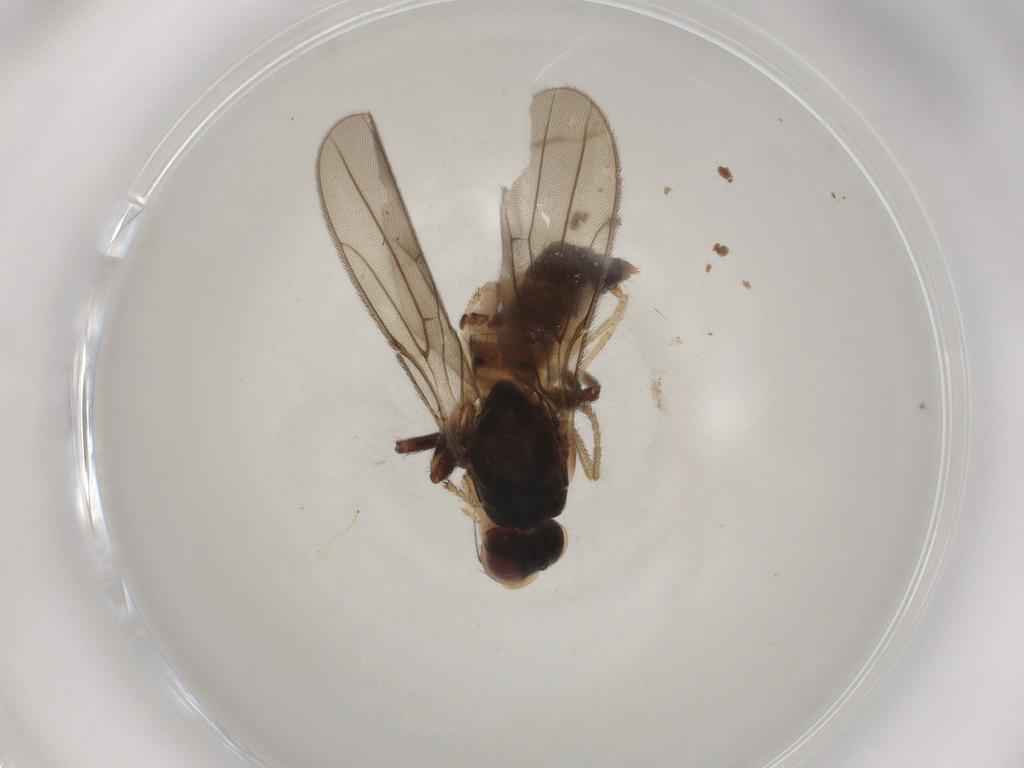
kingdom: Animalia
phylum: Arthropoda
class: Insecta
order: Diptera
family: Chloropidae
